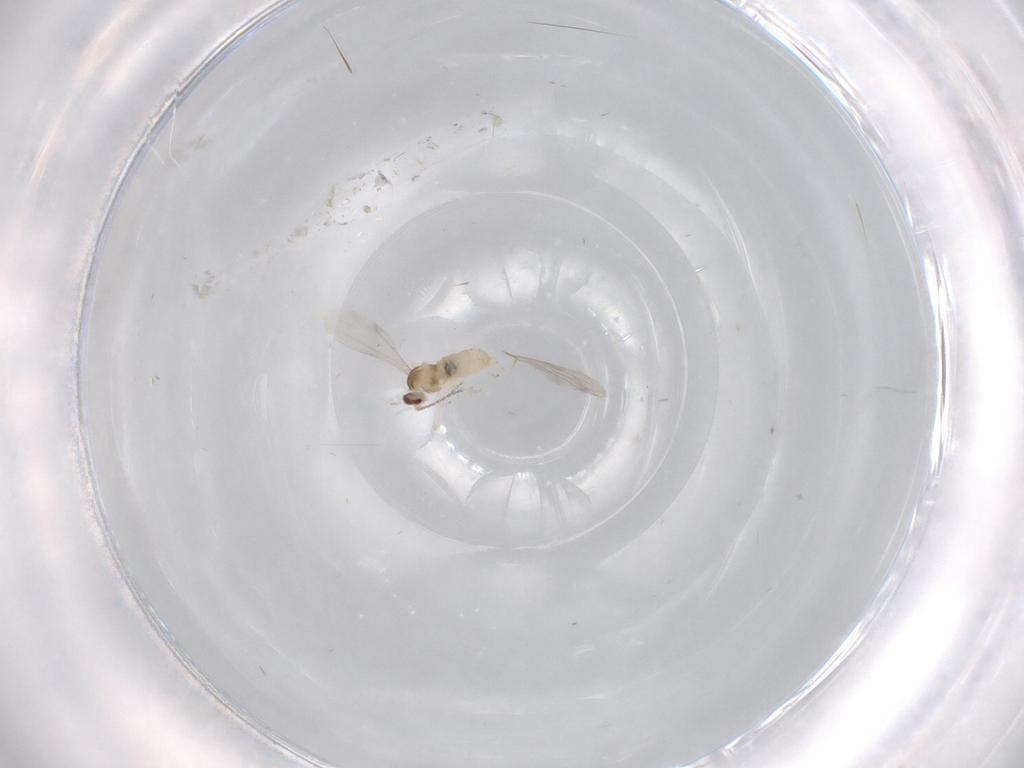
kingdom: Animalia
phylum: Arthropoda
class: Insecta
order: Diptera
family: Cecidomyiidae
